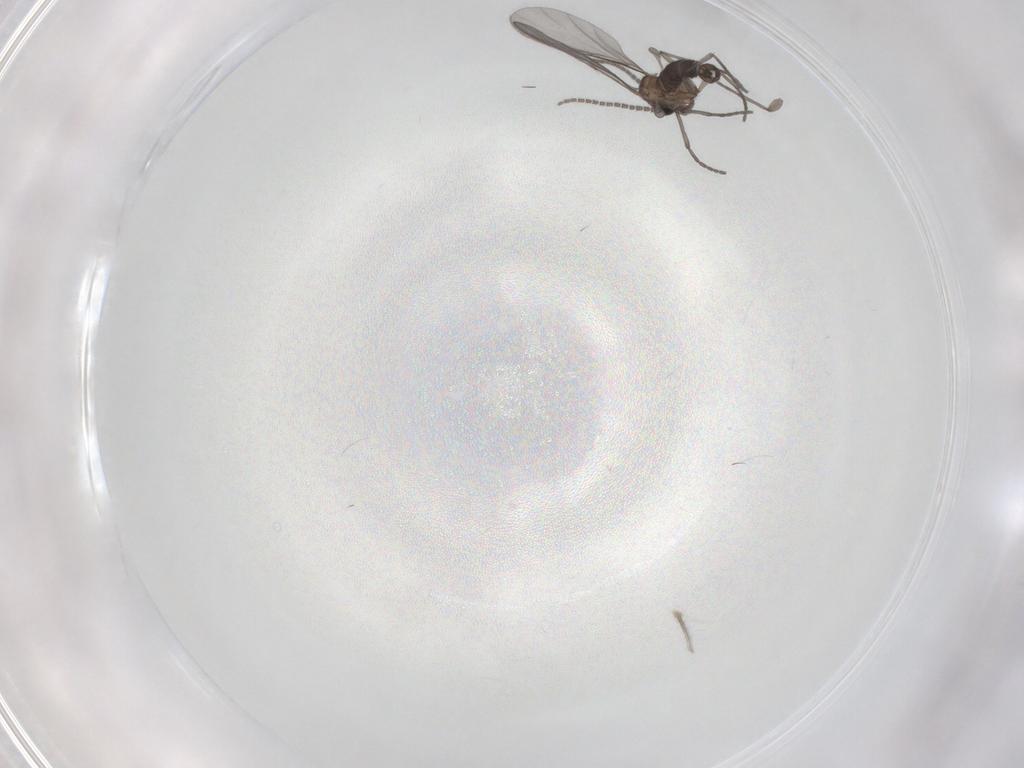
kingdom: Animalia
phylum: Arthropoda
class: Insecta
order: Diptera
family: Sciaridae
